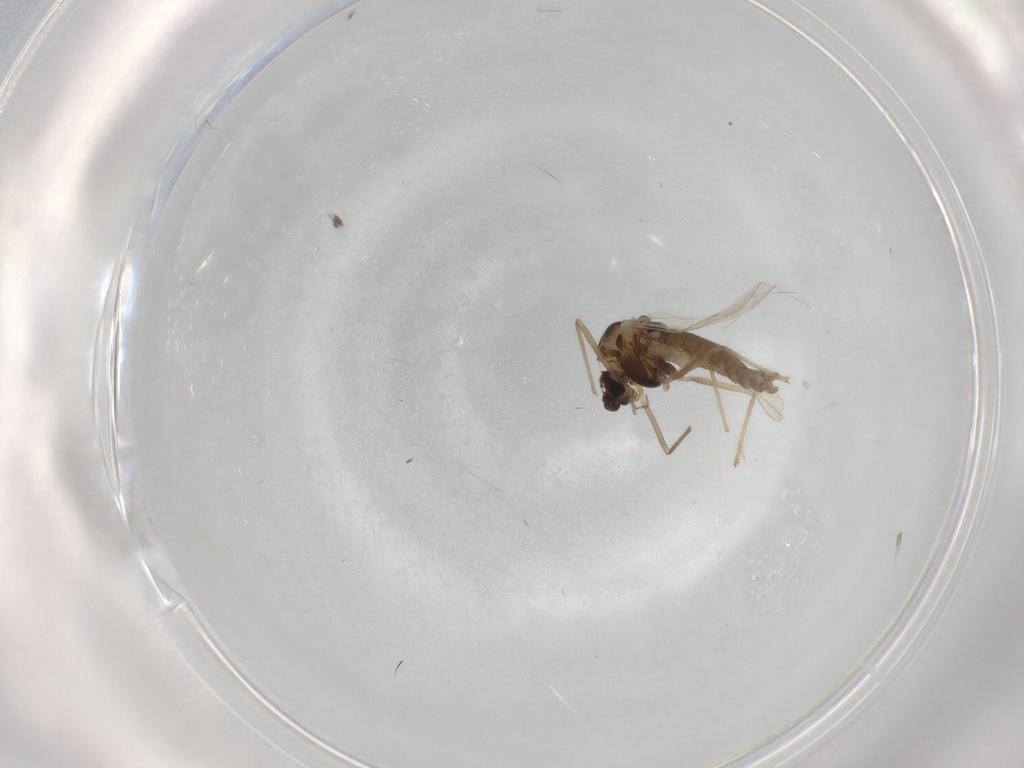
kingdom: Animalia
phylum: Arthropoda
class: Insecta
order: Diptera
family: Chironomidae
